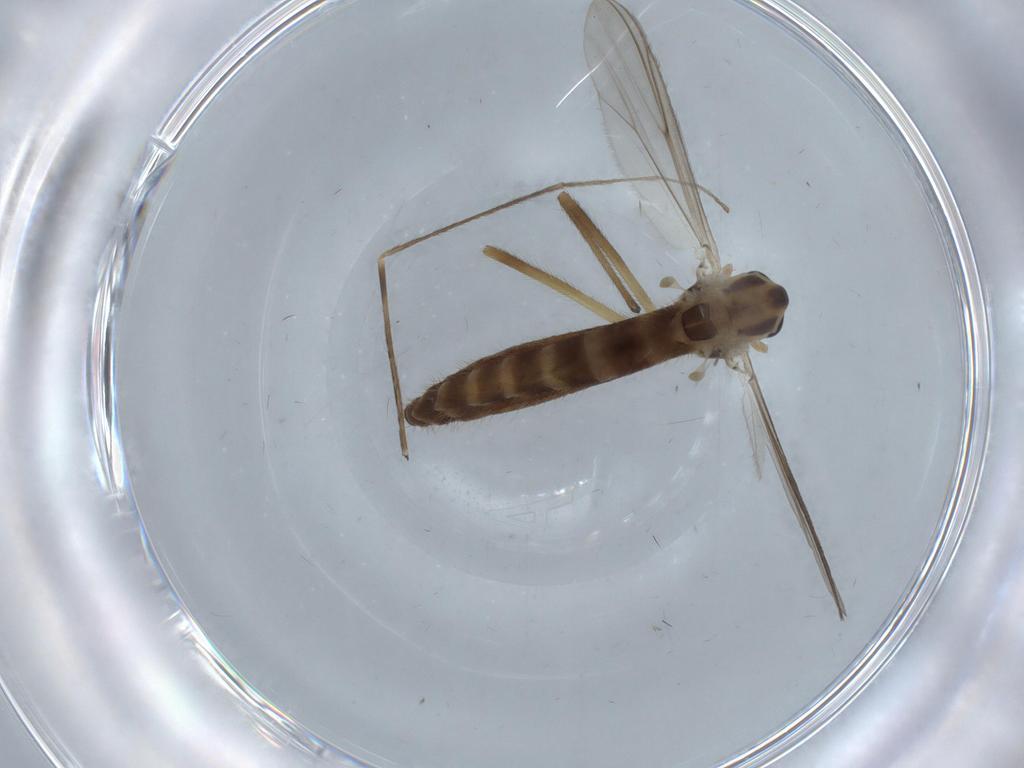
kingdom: Animalia
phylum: Arthropoda
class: Insecta
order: Diptera
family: Chironomidae
